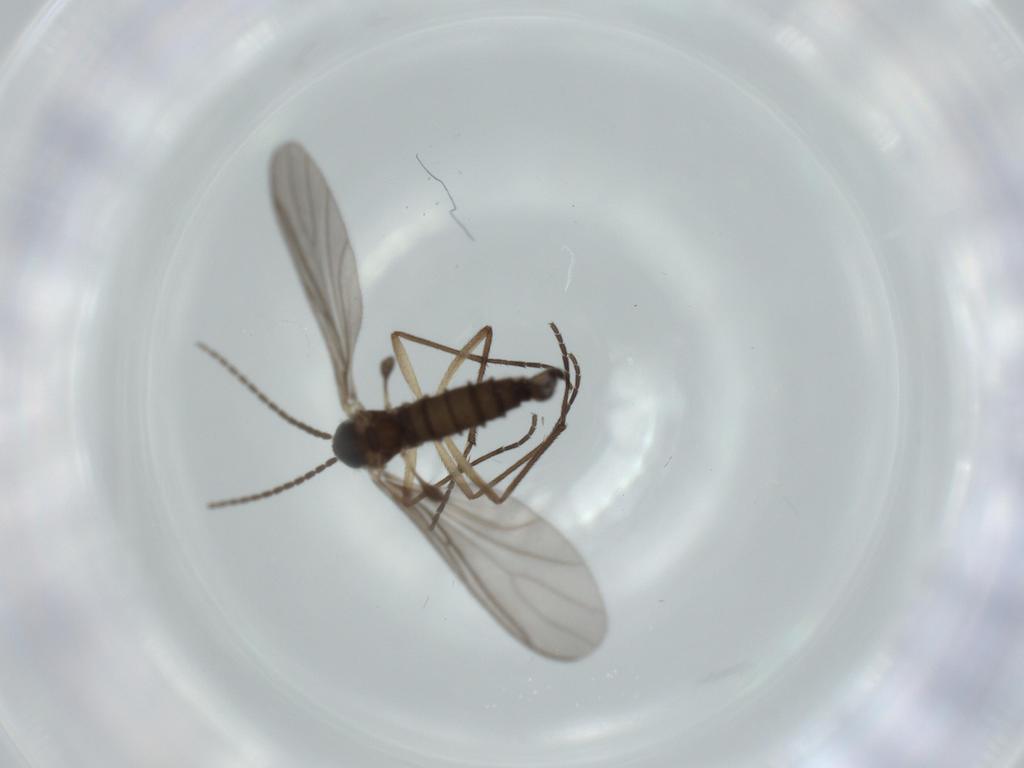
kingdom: Animalia
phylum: Arthropoda
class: Insecta
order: Diptera
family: Sciaridae
